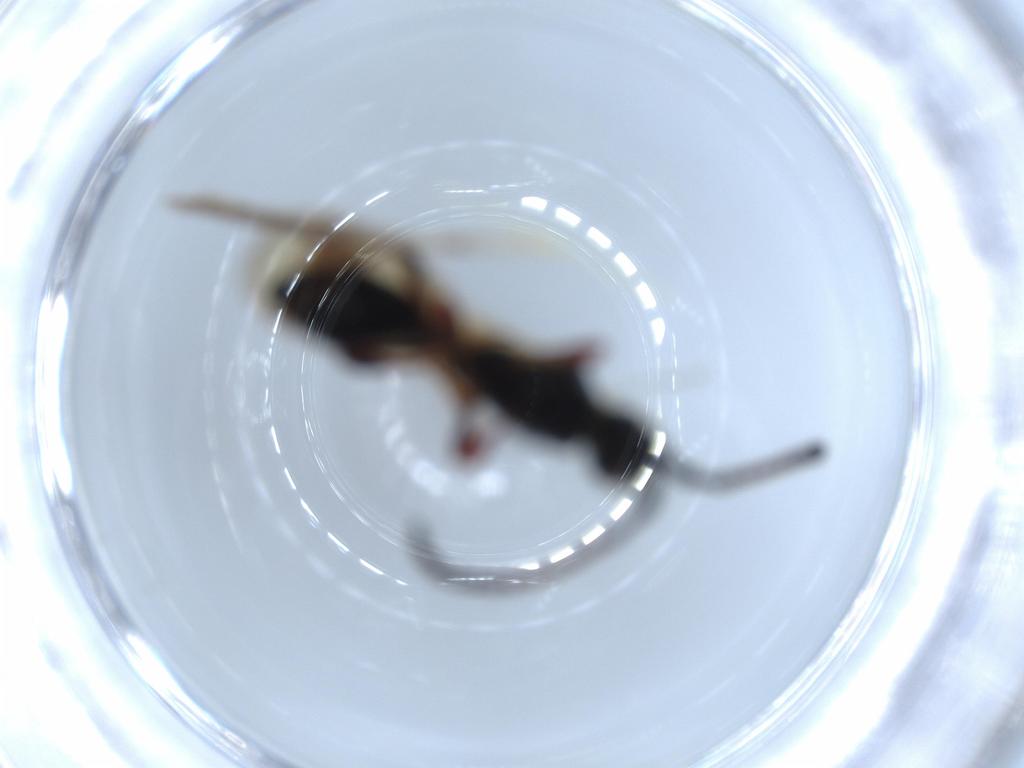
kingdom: Animalia
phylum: Arthropoda
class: Insecta
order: Hymenoptera
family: Diapriidae
